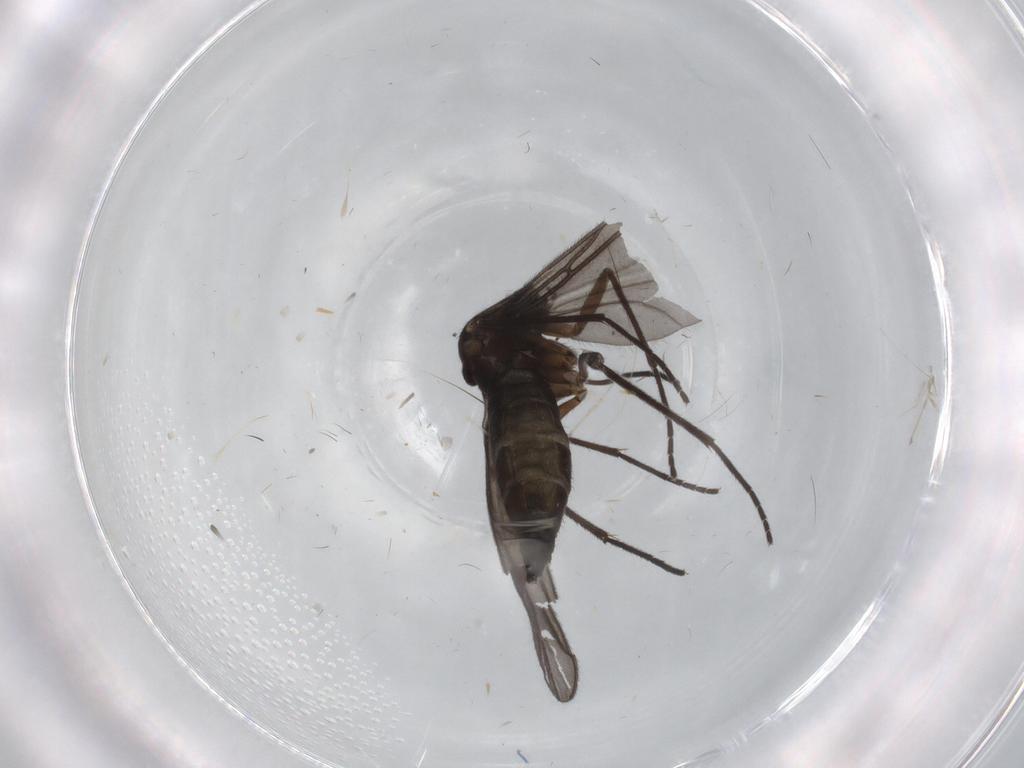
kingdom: Animalia
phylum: Arthropoda
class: Insecta
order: Diptera
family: Sciaridae
